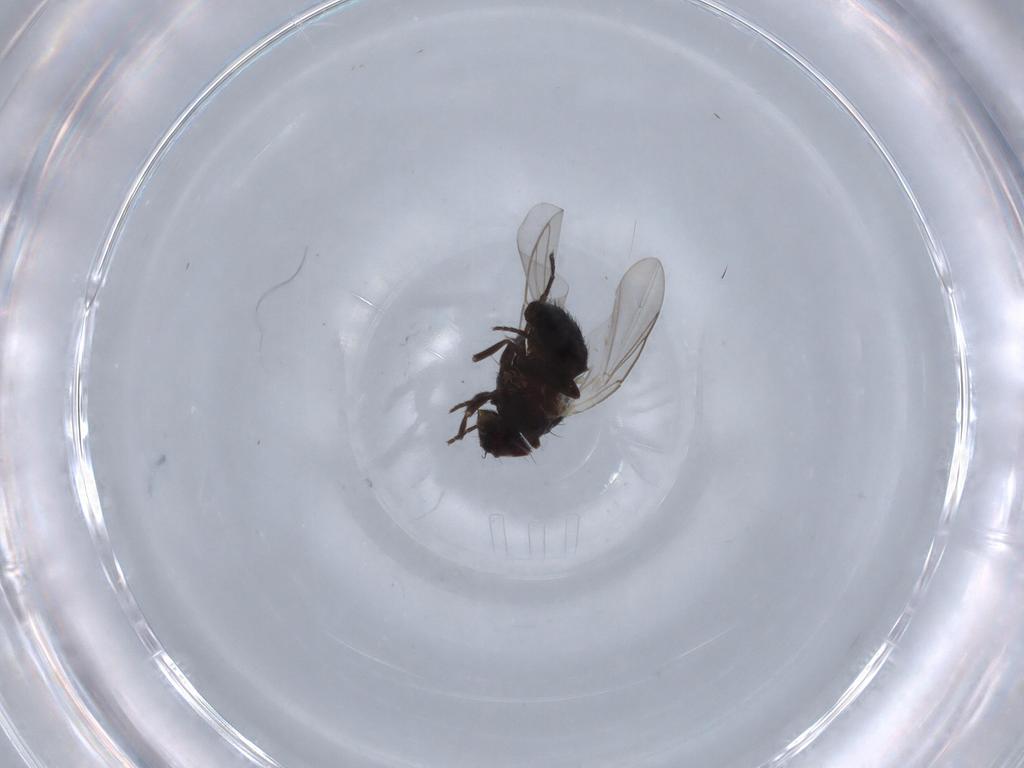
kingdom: Animalia
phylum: Arthropoda
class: Insecta
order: Diptera
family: Agromyzidae
